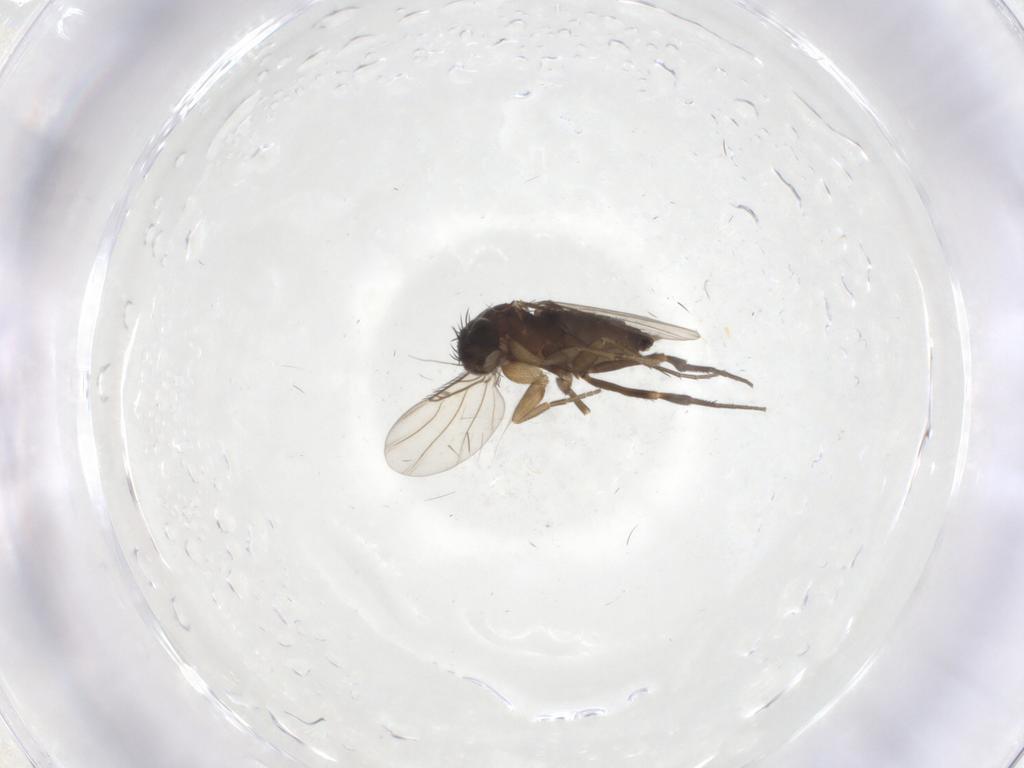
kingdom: Animalia
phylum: Arthropoda
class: Insecta
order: Diptera
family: Phoridae
